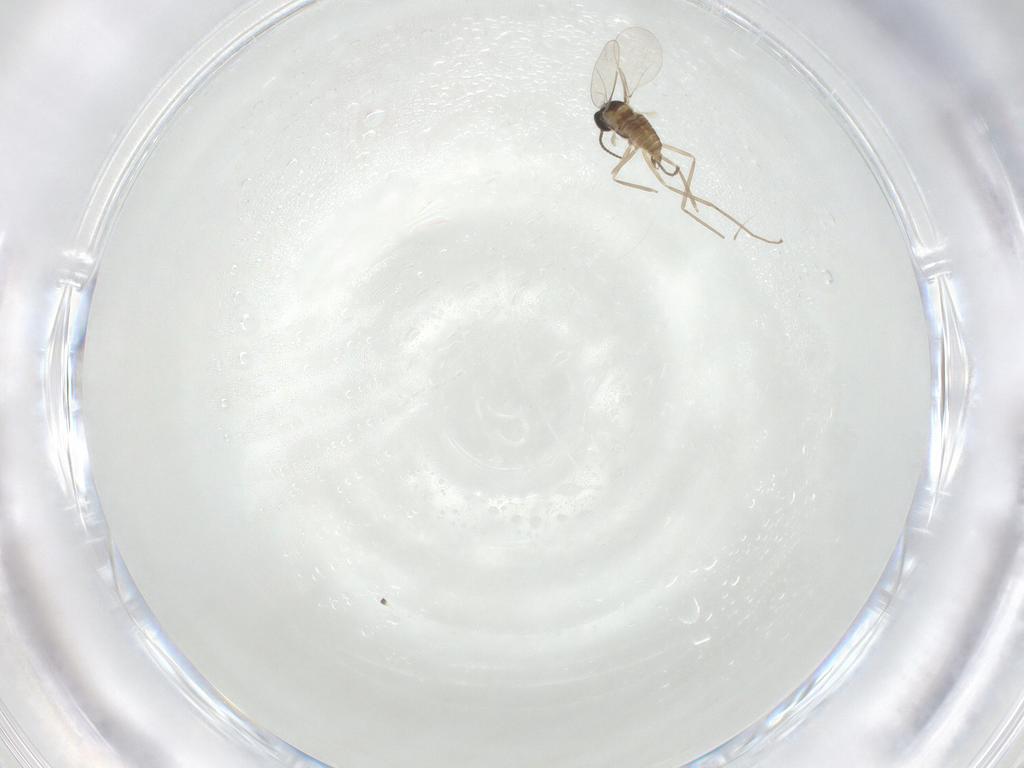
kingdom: Animalia
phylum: Arthropoda
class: Insecta
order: Diptera
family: Cecidomyiidae
